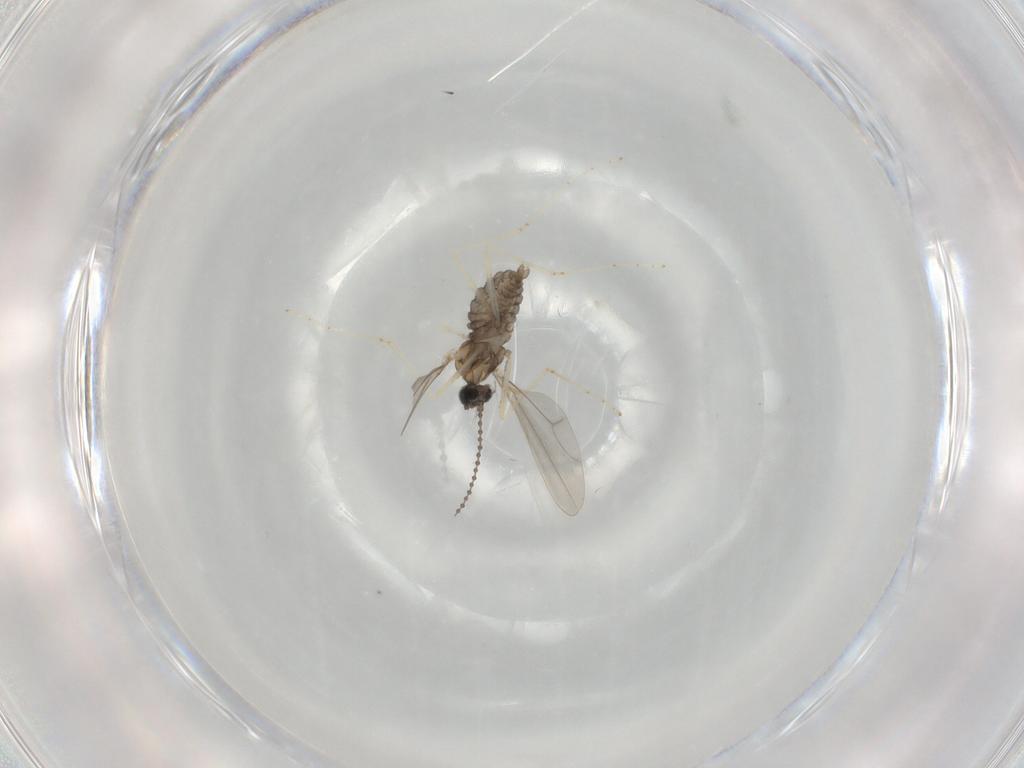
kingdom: Animalia
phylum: Arthropoda
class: Insecta
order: Diptera
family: Cecidomyiidae
